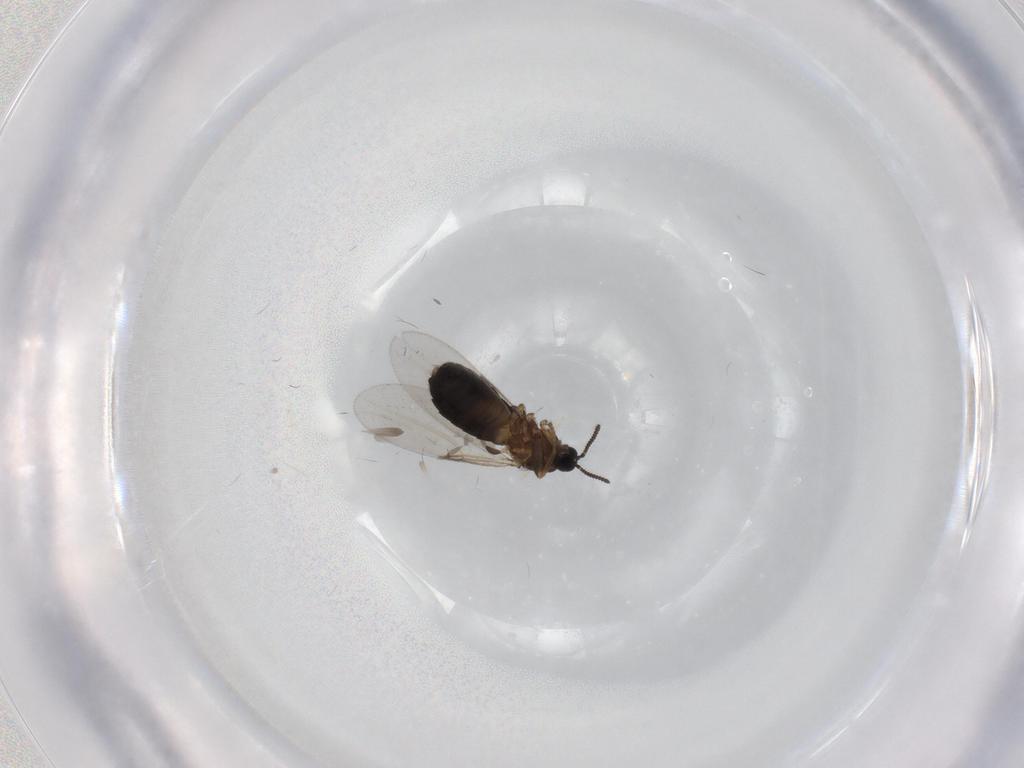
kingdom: Animalia
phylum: Arthropoda
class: Insecta
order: Diptera
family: Scatopsidae
